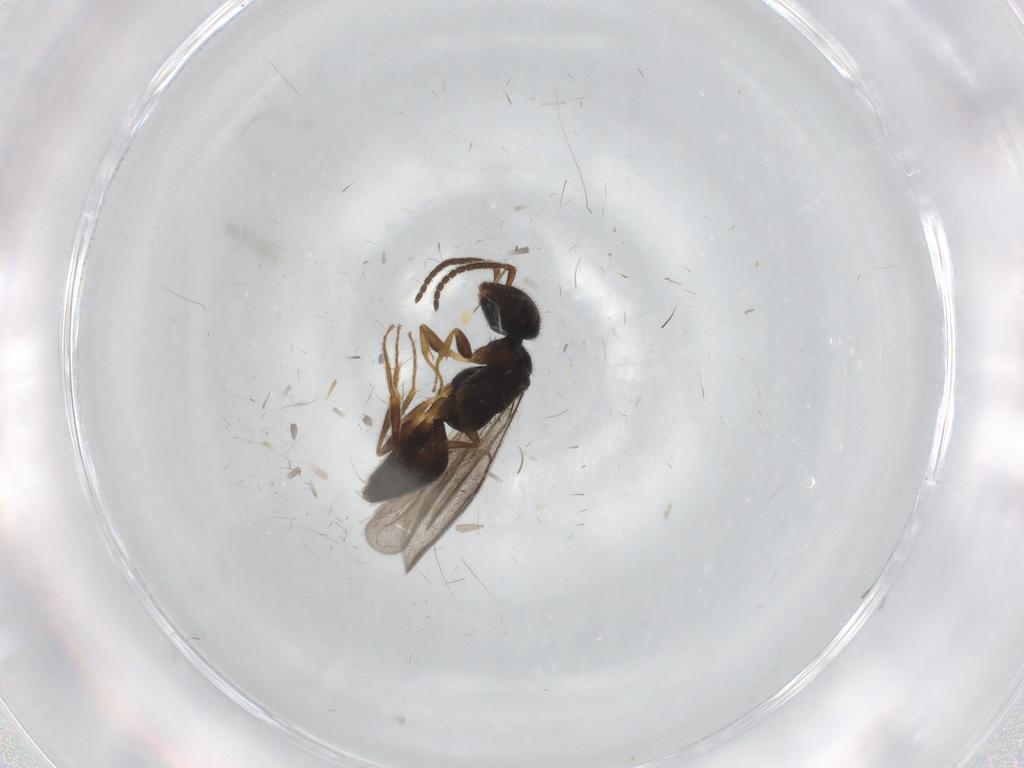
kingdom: Animalia
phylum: Arthropoda
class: Insecta
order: Hymenoptera
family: Bethylidae
